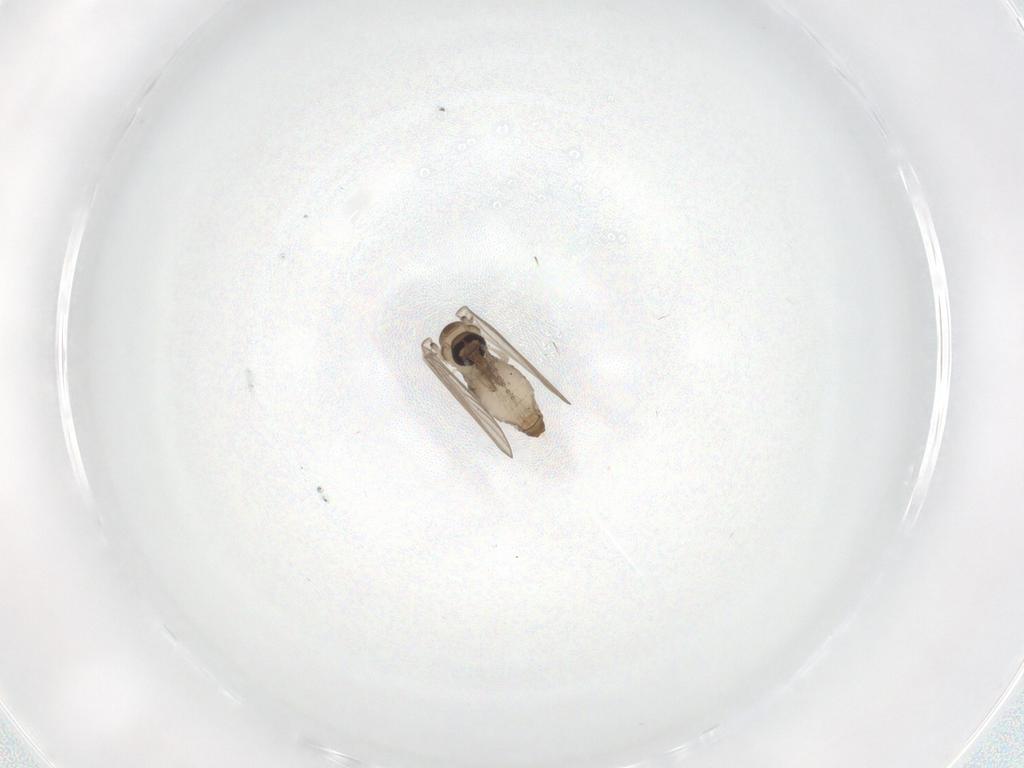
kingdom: Animalia
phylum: Arthropoda
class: Insecta
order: Diptera
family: Psychodidae
